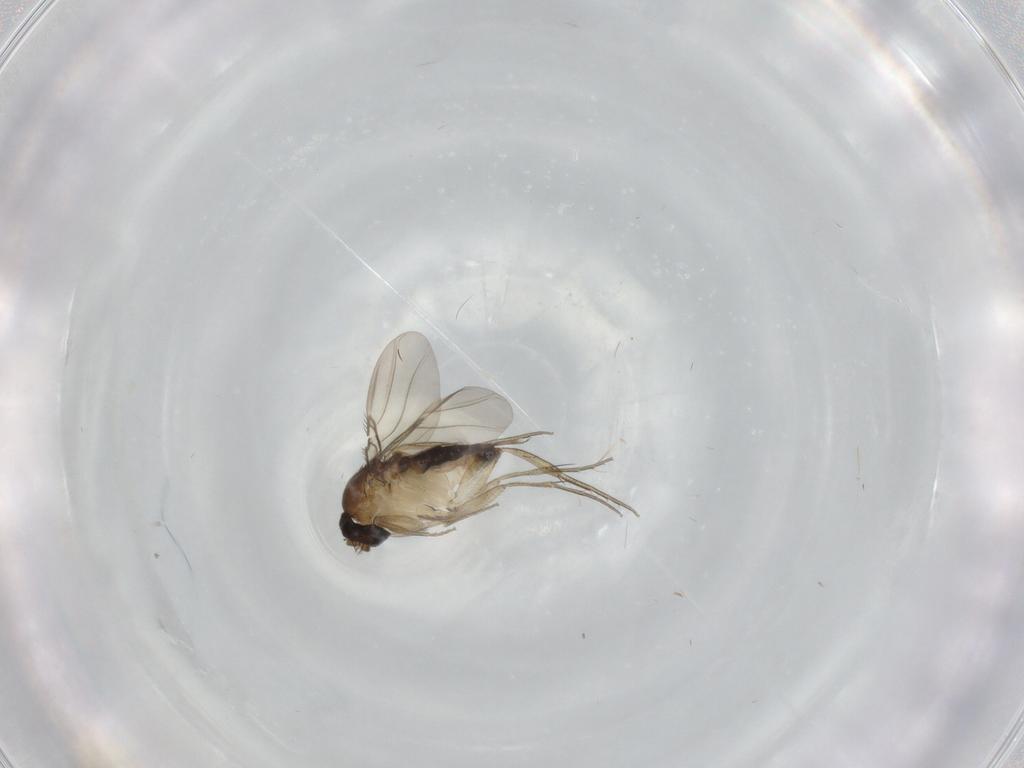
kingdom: Animalia
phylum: Arthropoda
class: Insecta
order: Diptera
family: Phoridae
